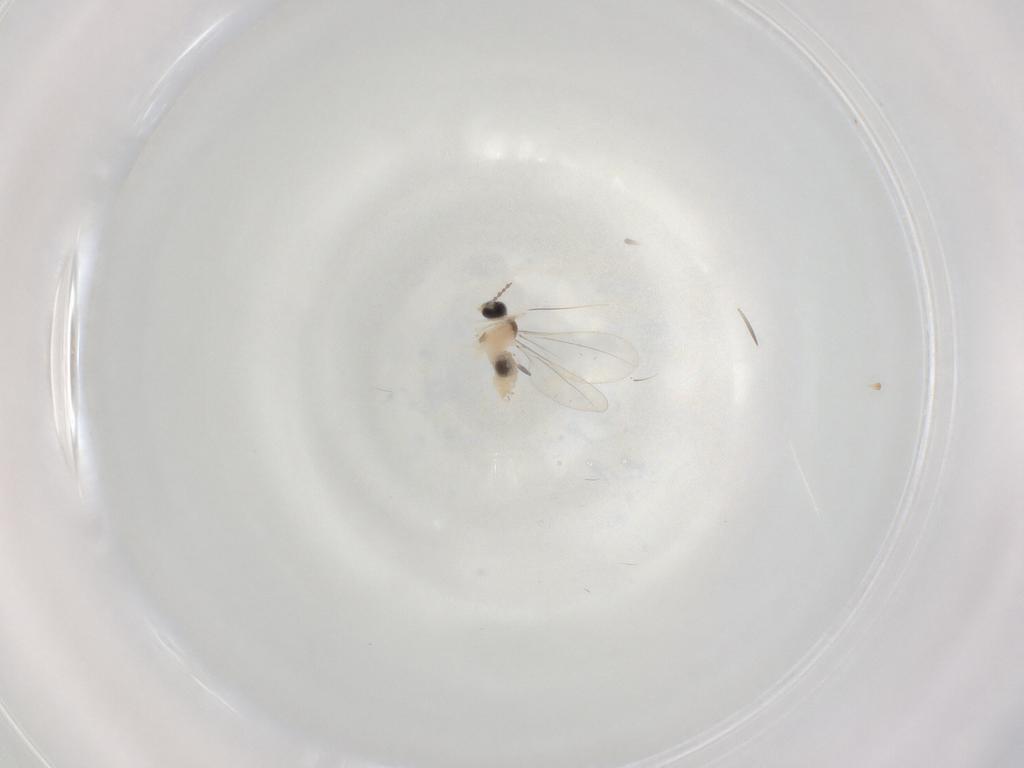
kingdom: Animalia
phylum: Arthropoda
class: Insecta
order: Diptera
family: Cecidomyiidae
